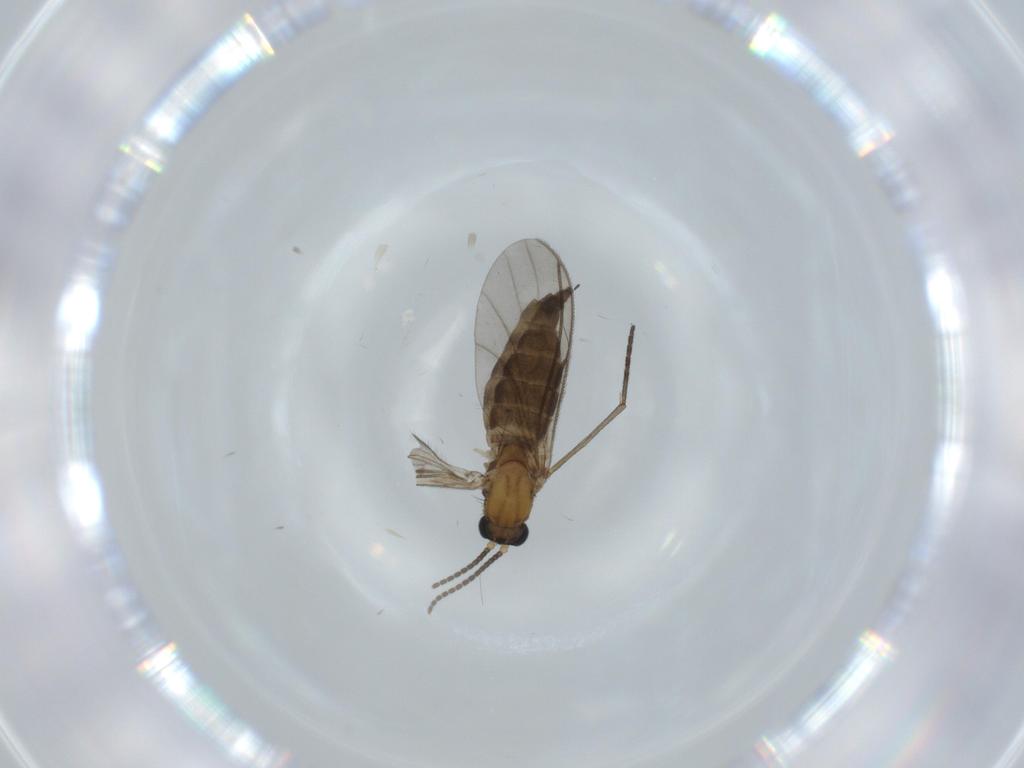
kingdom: Animalia
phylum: Arthropoda
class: Insecta
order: Diptera
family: Sciaridae
